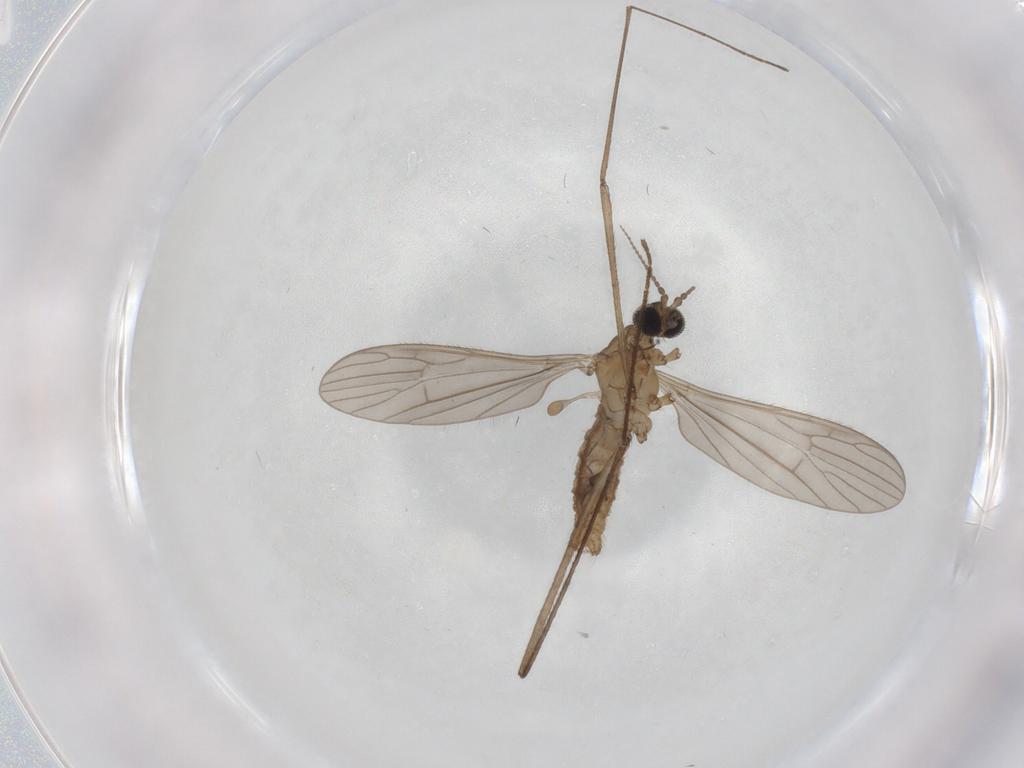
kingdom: Animalia
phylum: Arthropoda
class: Insecta
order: Diptera
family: Limoniidae
